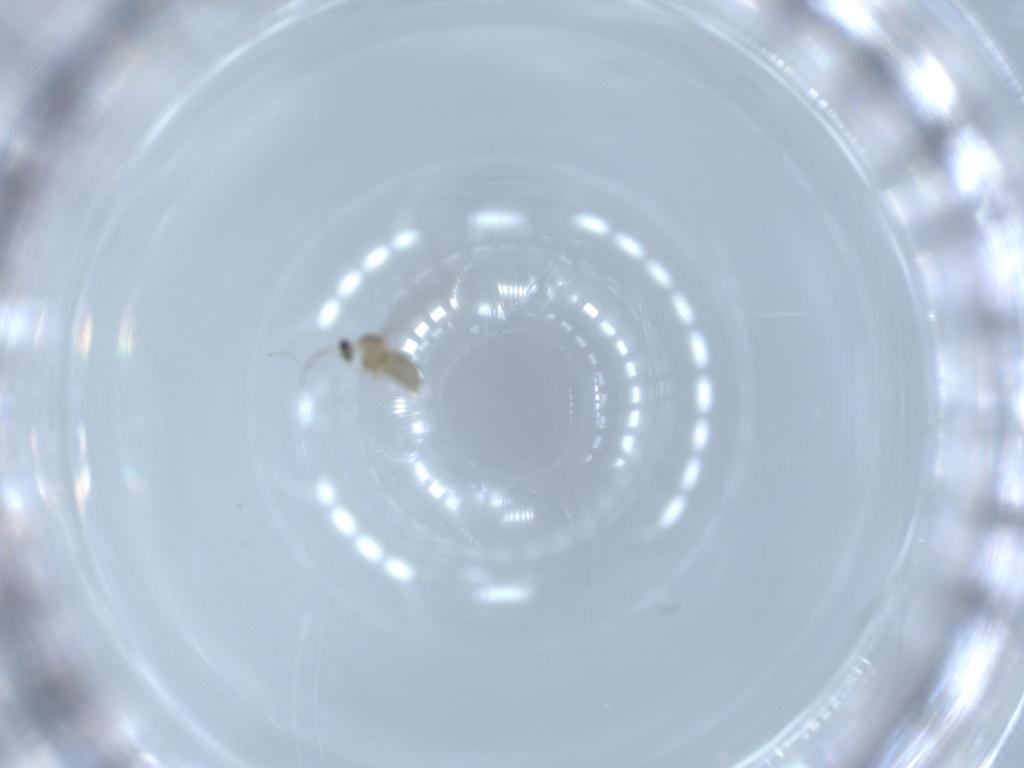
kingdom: Animalia
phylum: Arthropoda
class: Insecta
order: Diptera
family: Cecidomyiidae
